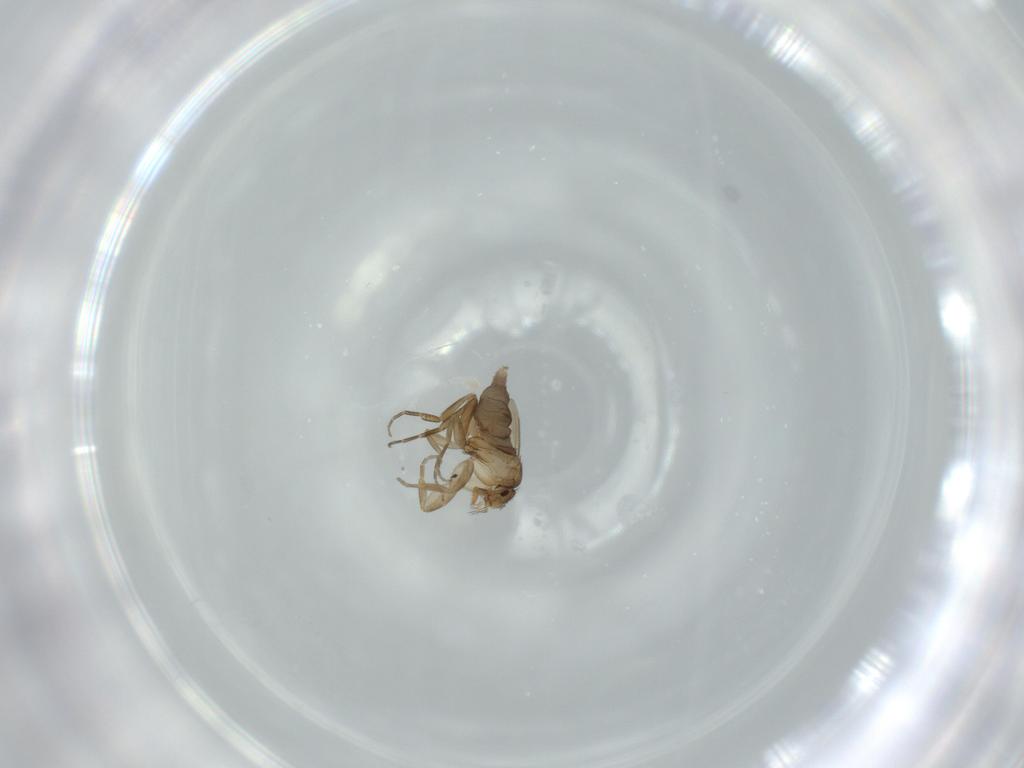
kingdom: Animalia
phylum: Arthropoda
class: Insecta
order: Diptera
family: Phoridae
